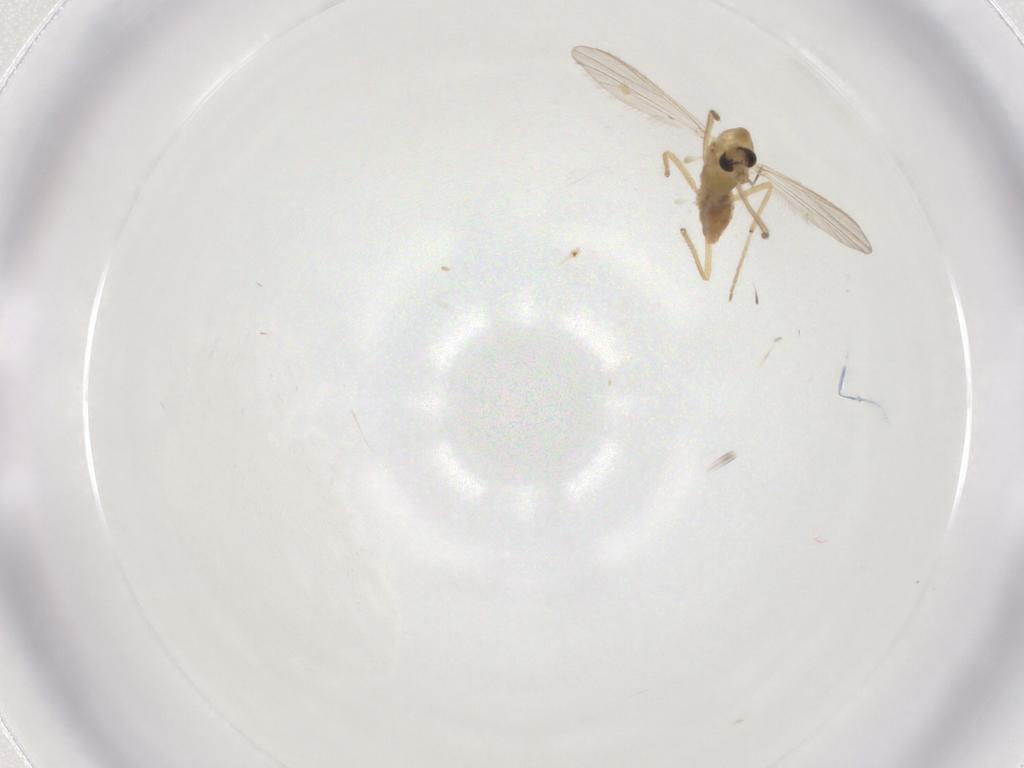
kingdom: Animalia
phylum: Arthropoda
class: Insecta
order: Diptera
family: Chironomidae
